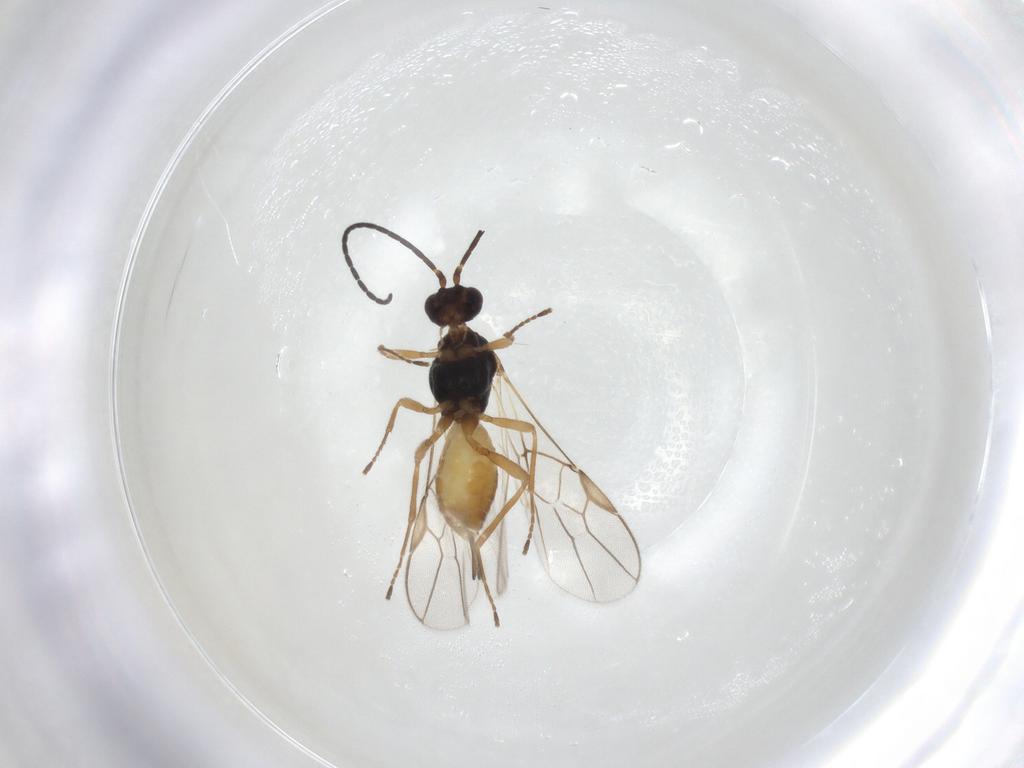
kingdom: Animalia
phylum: Arthropoda
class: Insecta
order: Hymenoptera
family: Braconidae
